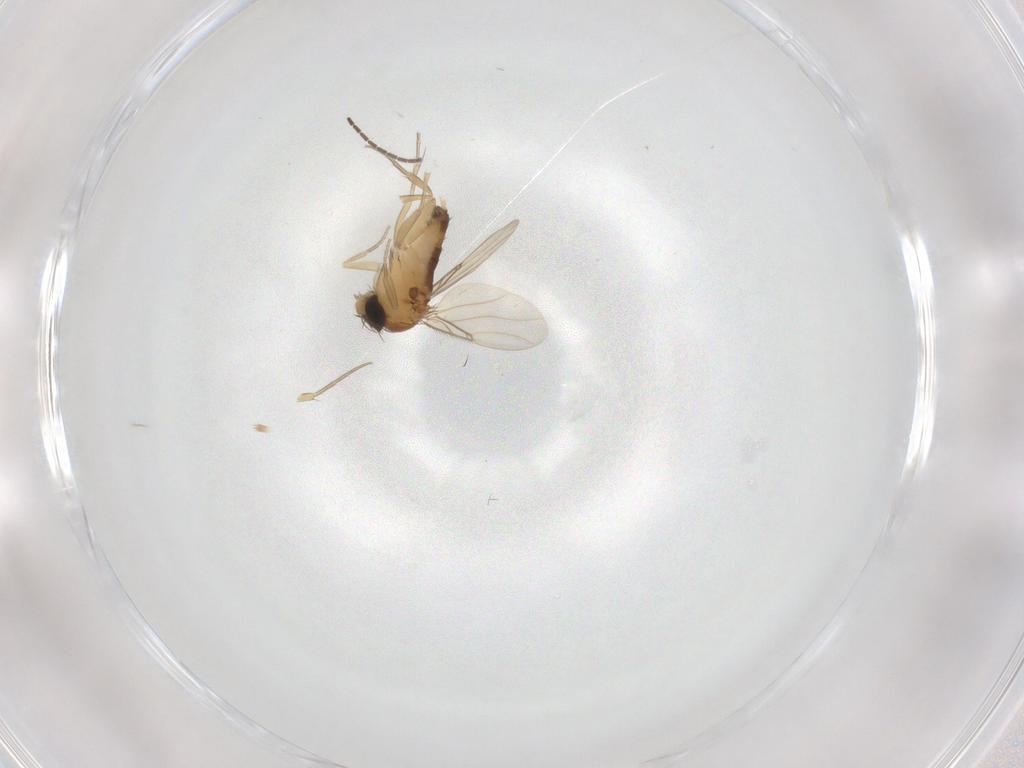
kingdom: Animalia
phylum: Arthropoda
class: Insecta
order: Diptera
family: Phoridae
